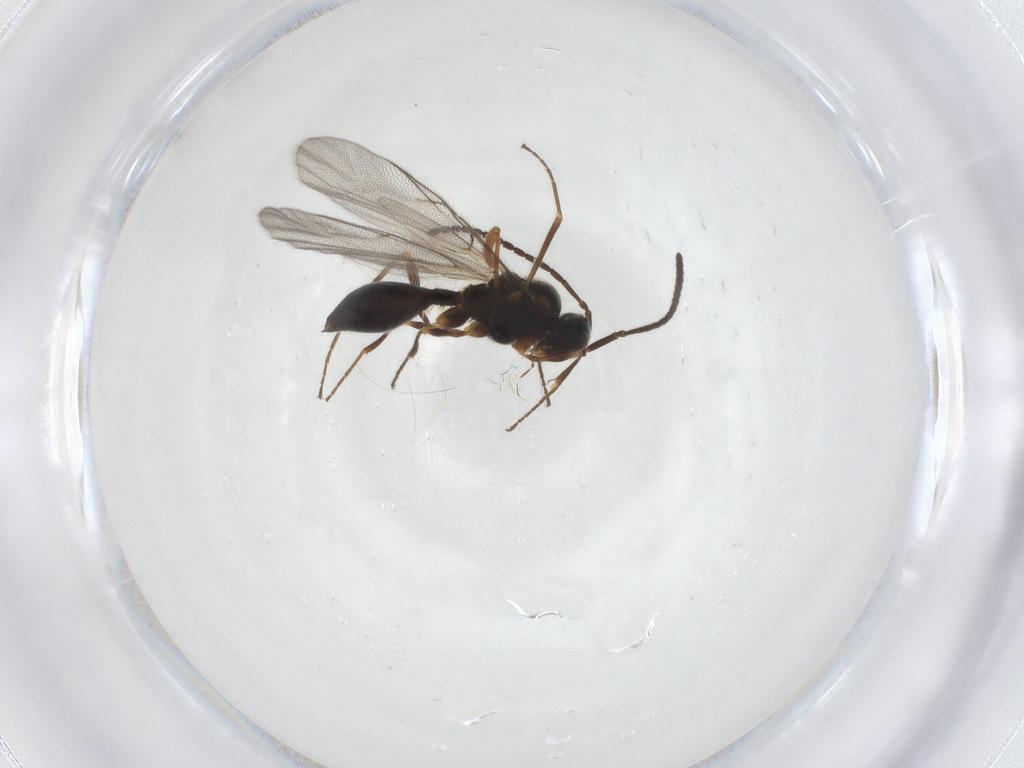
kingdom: Animalia
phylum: Arthropoda
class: Insecta
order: Hymenoptera
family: Diapriidae
